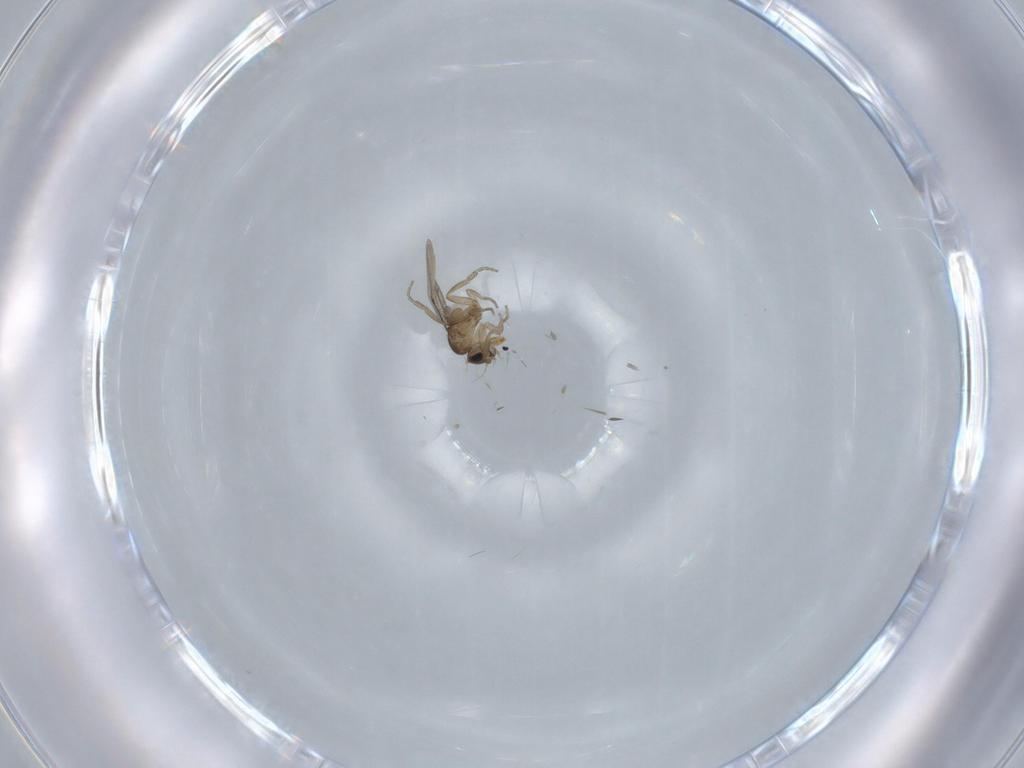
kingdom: Animalia
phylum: Arthropoda
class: Insecta
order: Diptera
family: Phoridae
